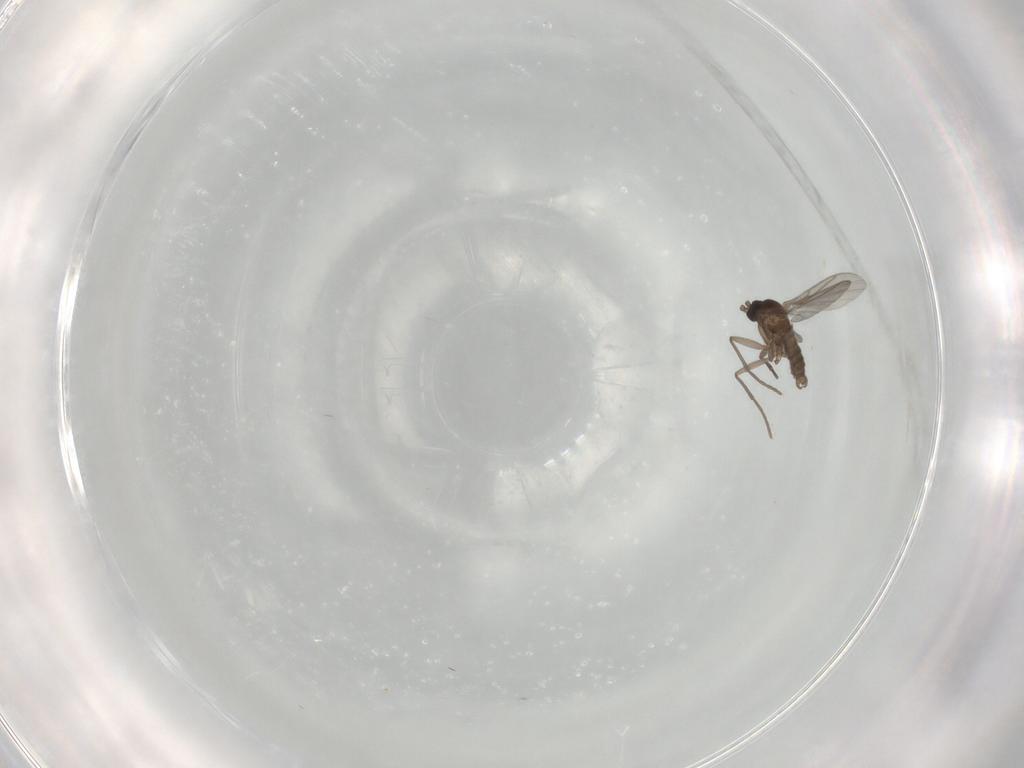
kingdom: Animalia
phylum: Arthropoda
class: Insecta
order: Diptera
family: Sciaridae
